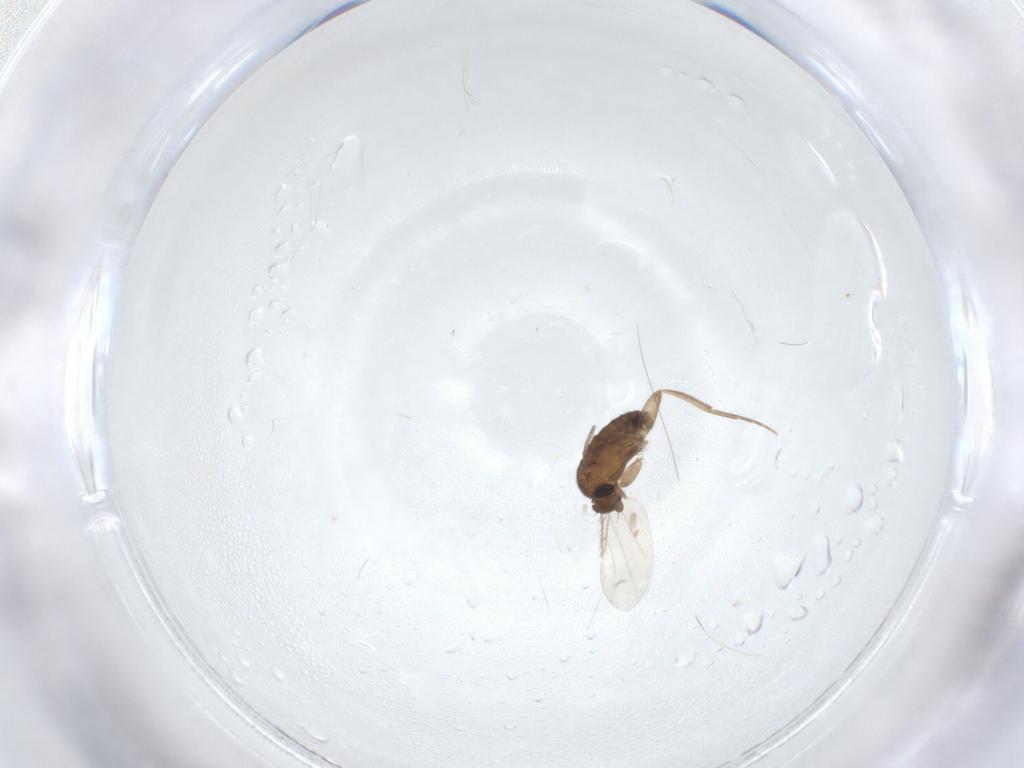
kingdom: Animalia
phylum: Arthropoda
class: Insecta
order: Diptera
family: Phoridae
